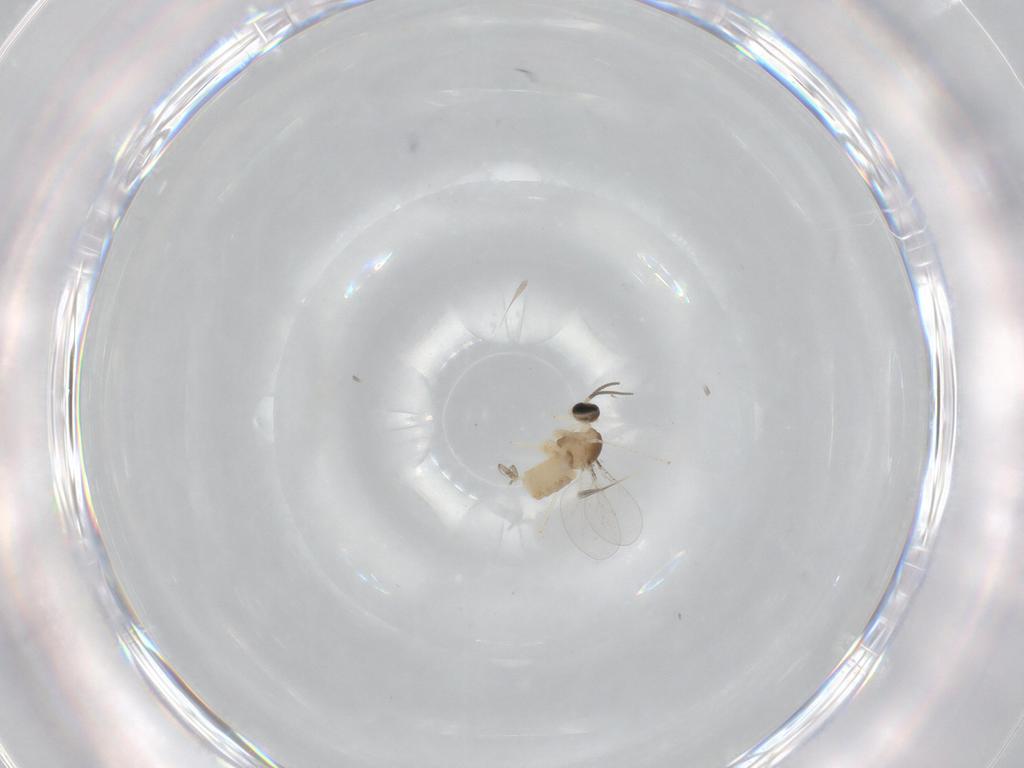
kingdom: Animalia
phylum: Arthropoda
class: Insecta
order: Diptera
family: Cecidomyiidae
